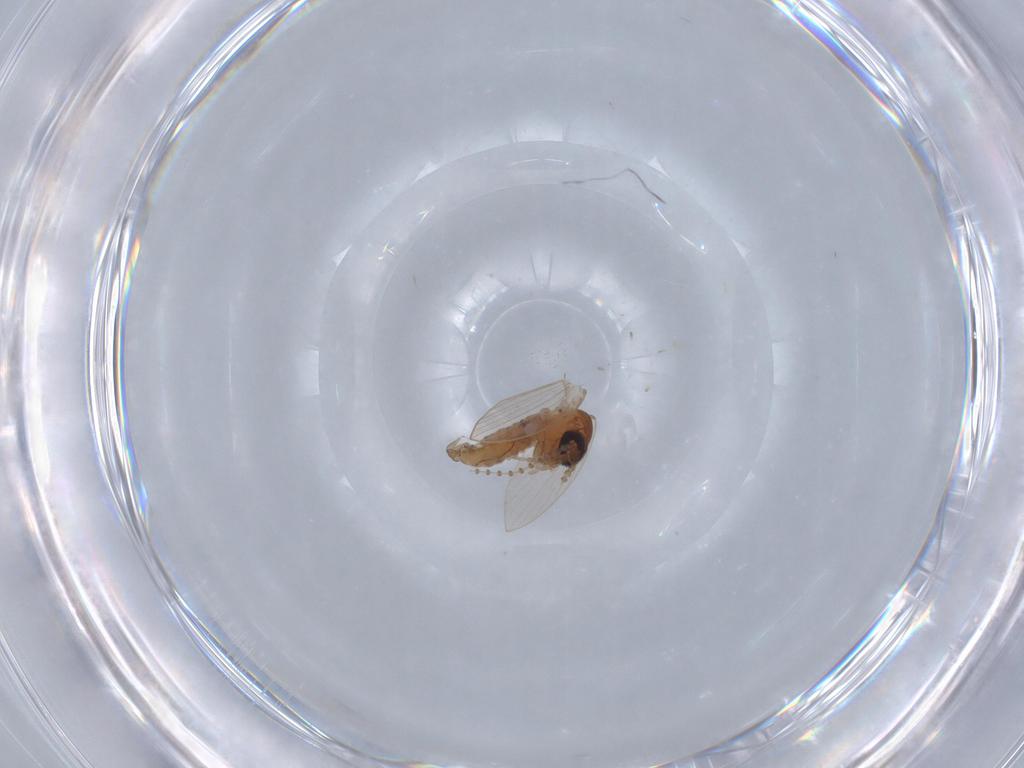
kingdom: Animalia
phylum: Arthropoda
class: Insecta
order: Diptera
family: Psychodidae
